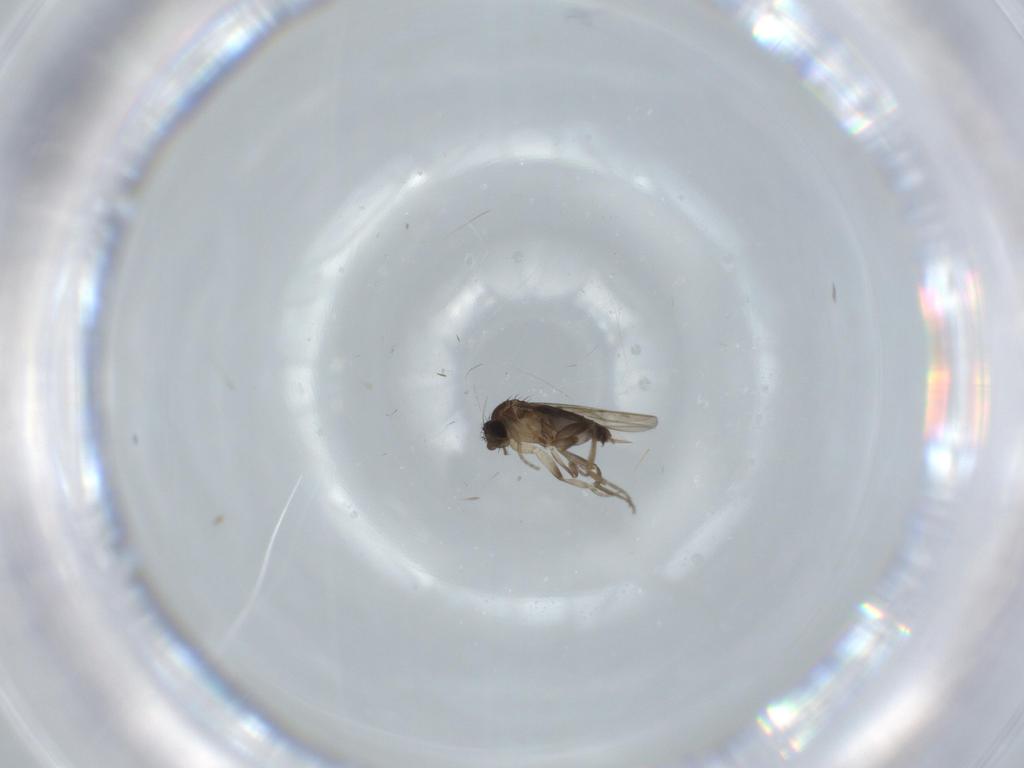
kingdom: Animalia
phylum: Arthropoda
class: Insecta
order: Diptera
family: Phoridae
